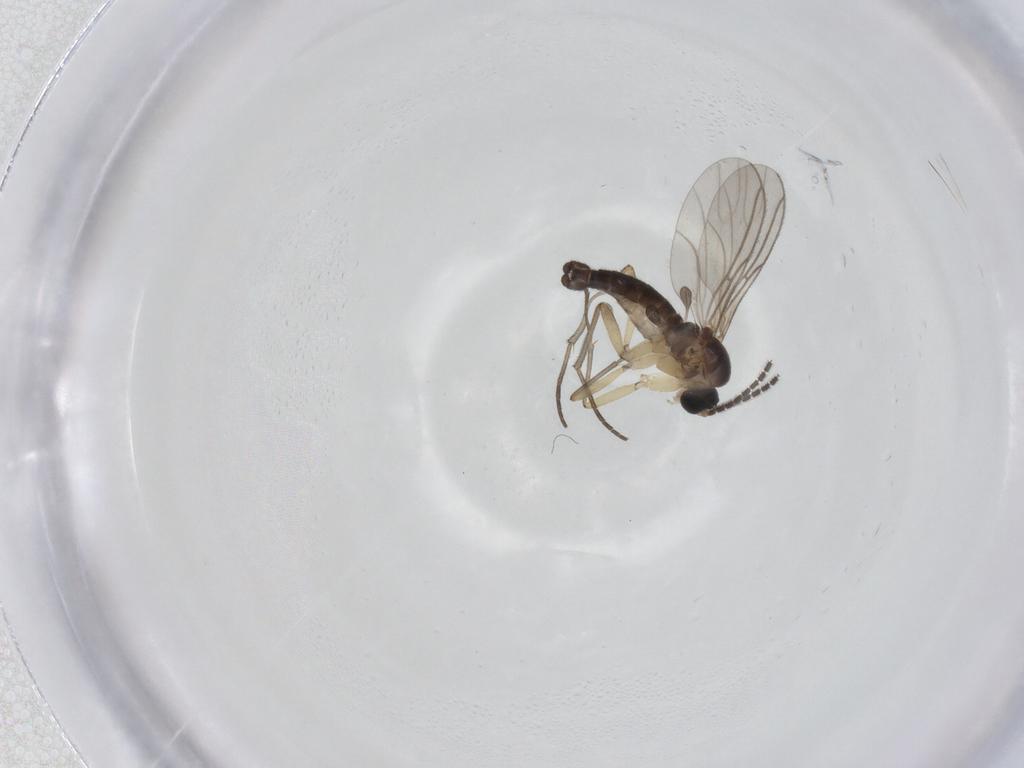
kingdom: Animalia
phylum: Arthropoda
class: Insecta
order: Diptera
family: Sciaridae
